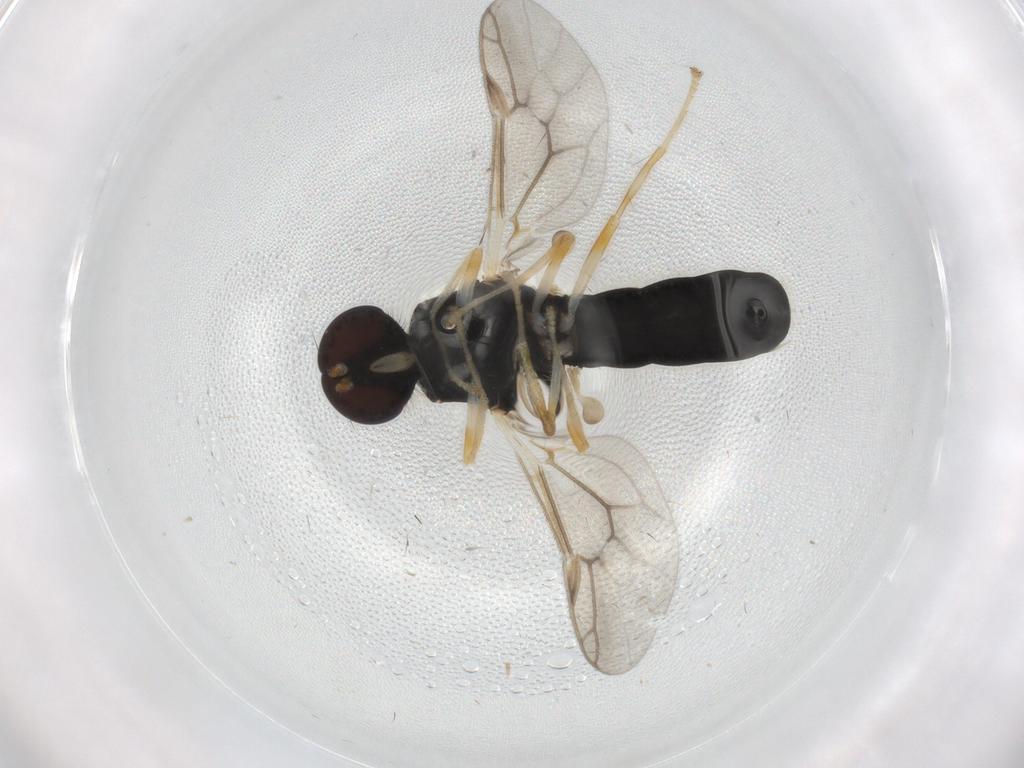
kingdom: Animalia
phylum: Arthropoda
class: Insecta
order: Diptera
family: Stratiomyidae
